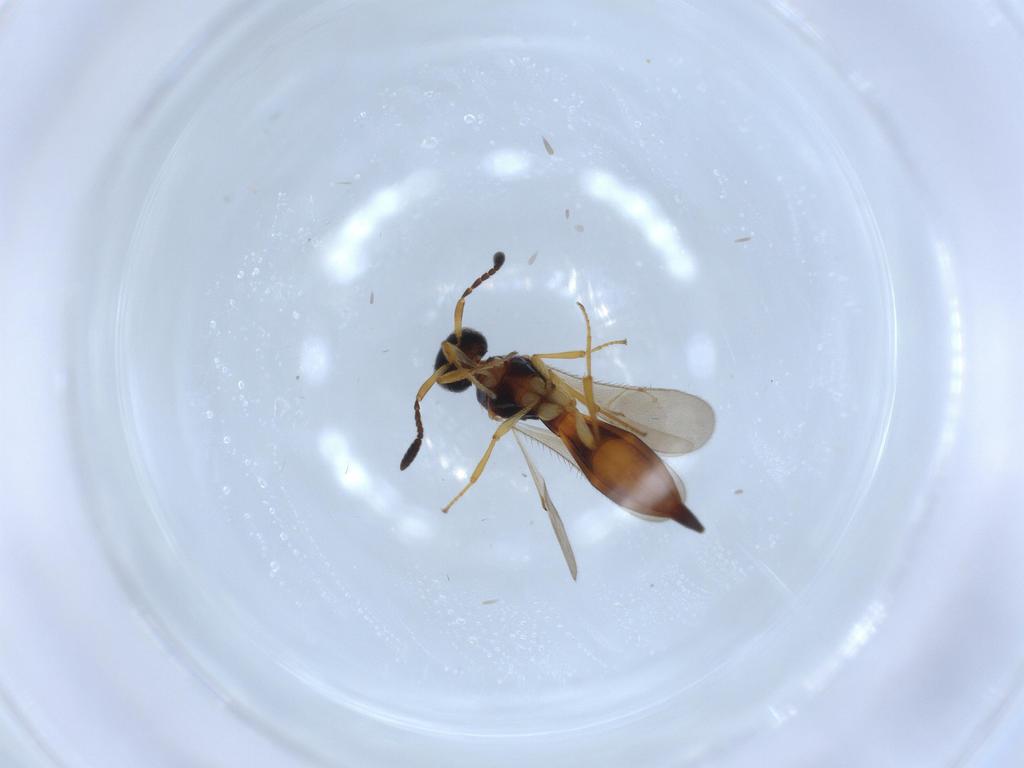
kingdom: Animalia
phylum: Arthropoda
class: Insecta
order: Hymenoptera
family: Scelionidae
